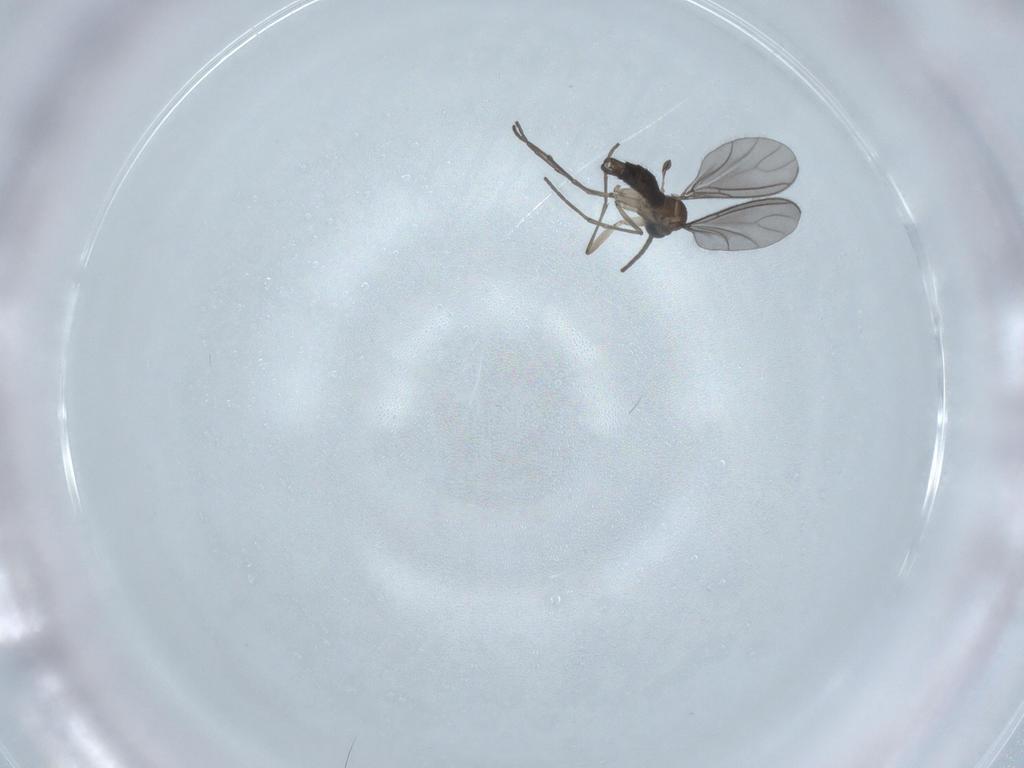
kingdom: Animalia
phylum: Arthropoda
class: Insecta
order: Diptera
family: Sciaridae
